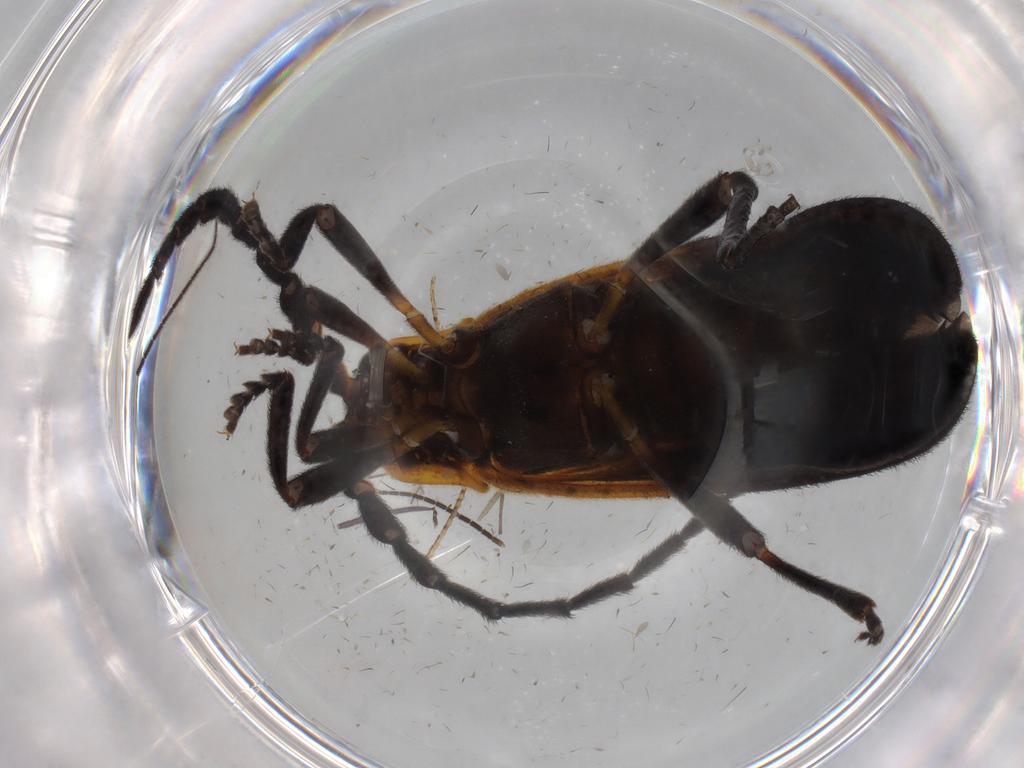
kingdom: Animalia
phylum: Arthropoda
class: Insecta
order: Coleoptera
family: Lycidae
